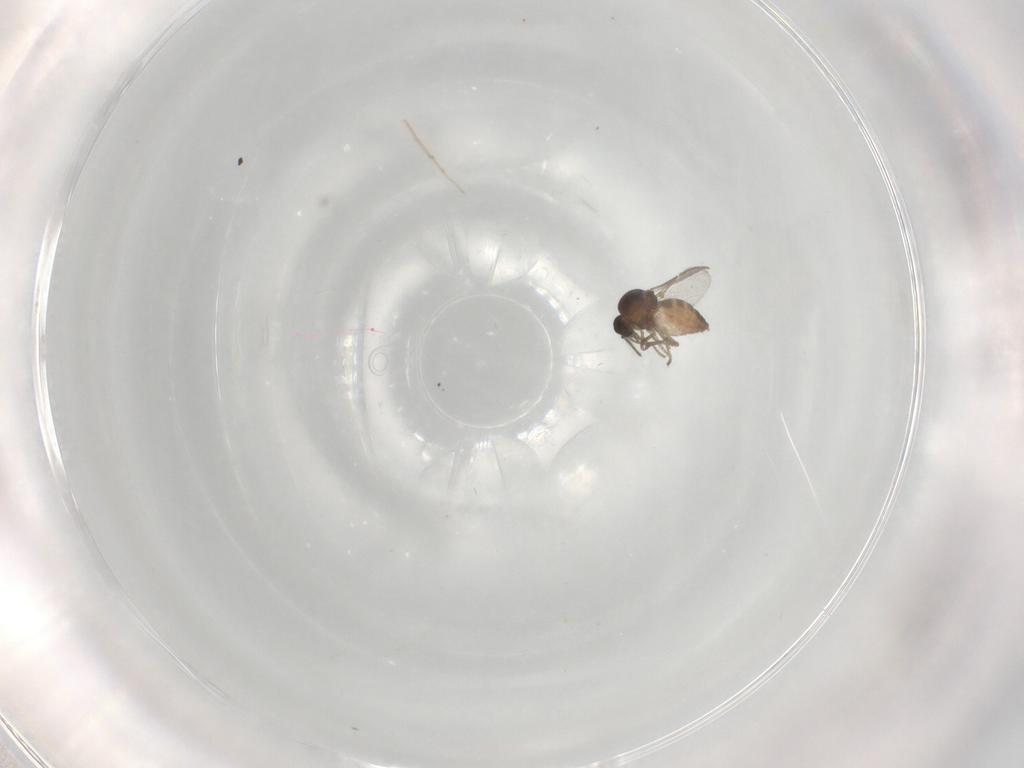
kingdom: Animalia
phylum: Arthropoda
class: Insecta
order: Diptera
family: Ceratopogonidae
